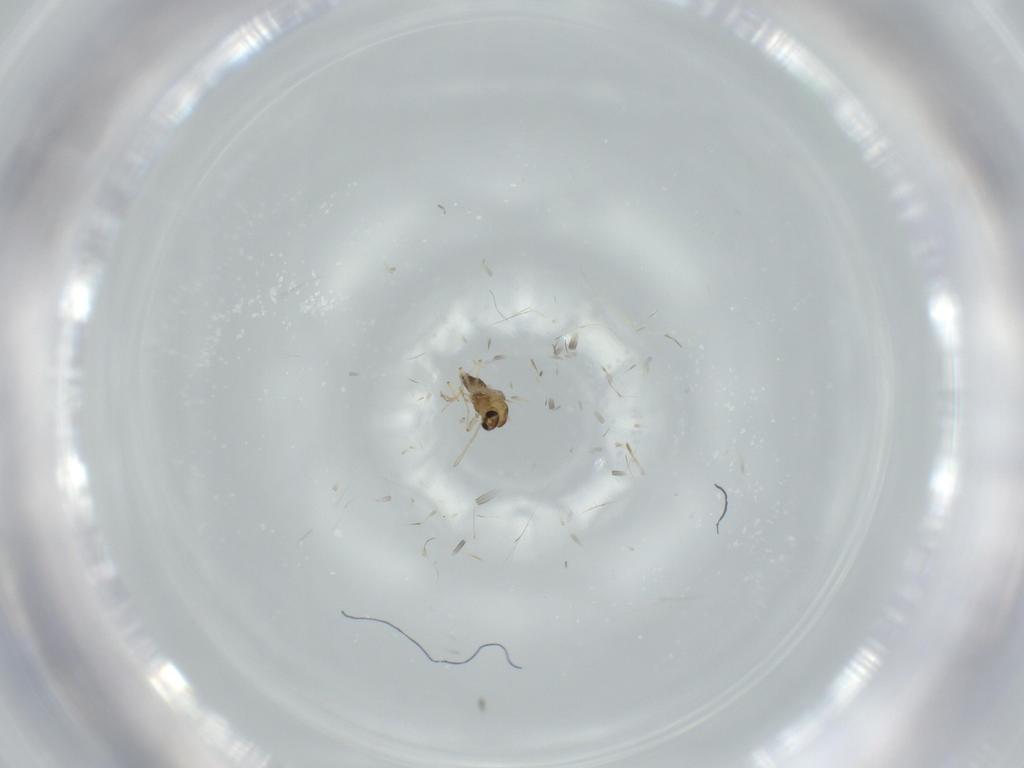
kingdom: Animalia
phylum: Arthropoda
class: Insecta
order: Diptera
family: Chironomidae
